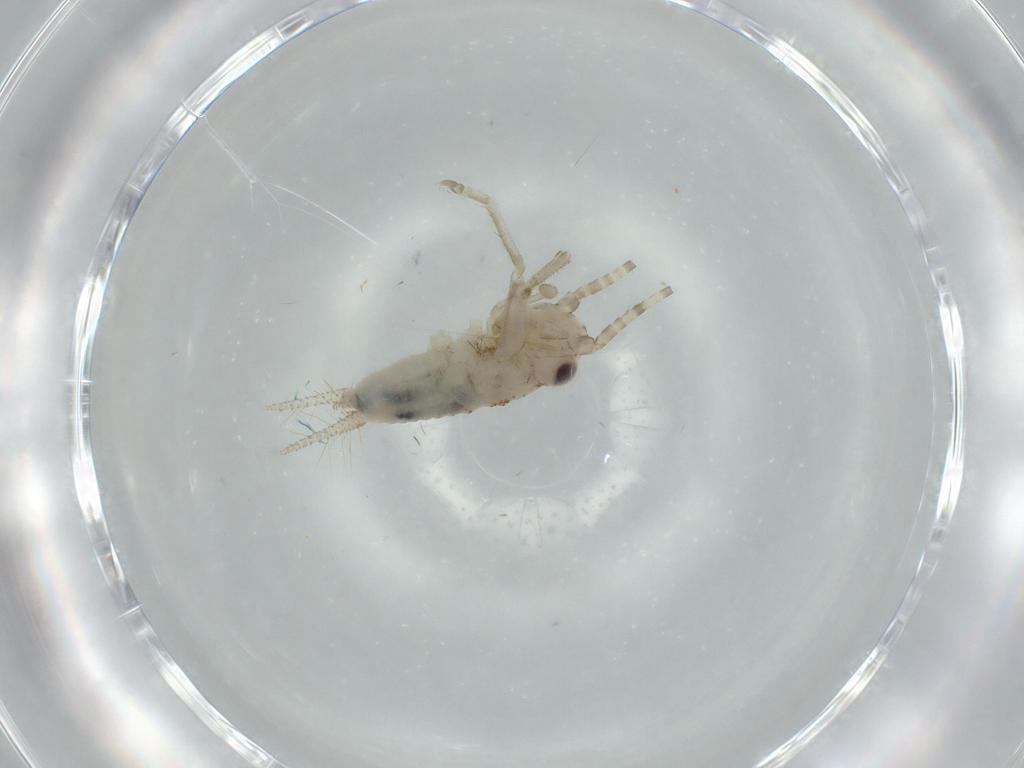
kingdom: Animalia
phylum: Arthropoda
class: Insecta
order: Orthoptera
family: Trigonidiidae
